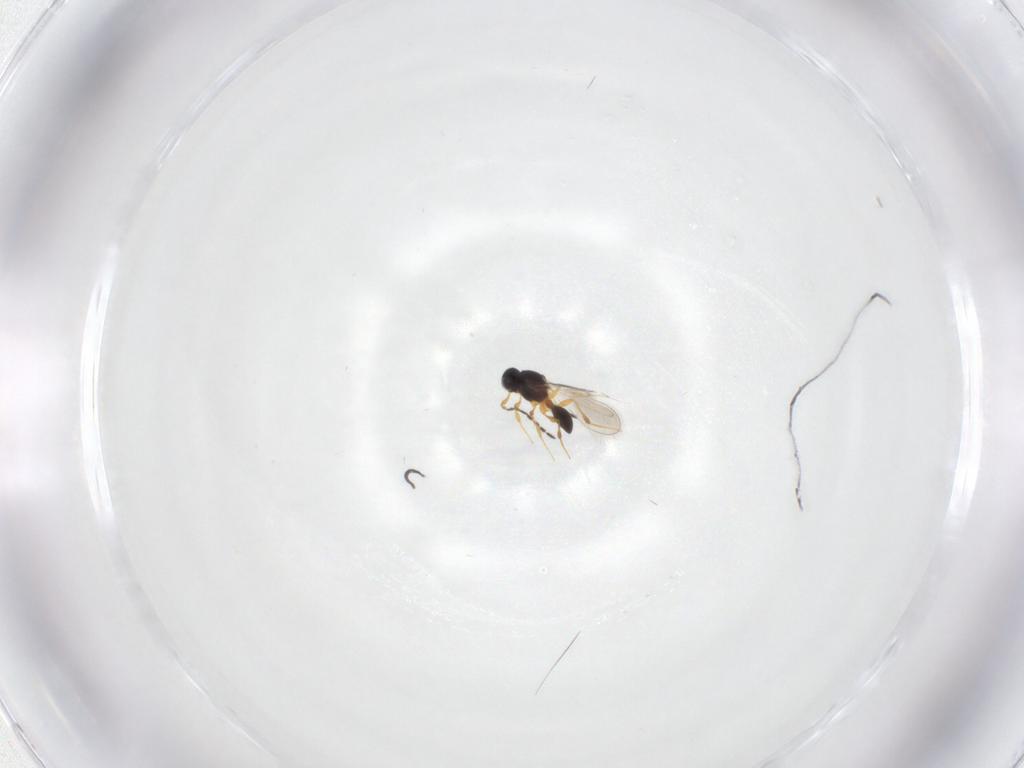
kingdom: Animalia
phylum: Arthropoda
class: Insecta
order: Hymenoptera
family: Platygastridae
